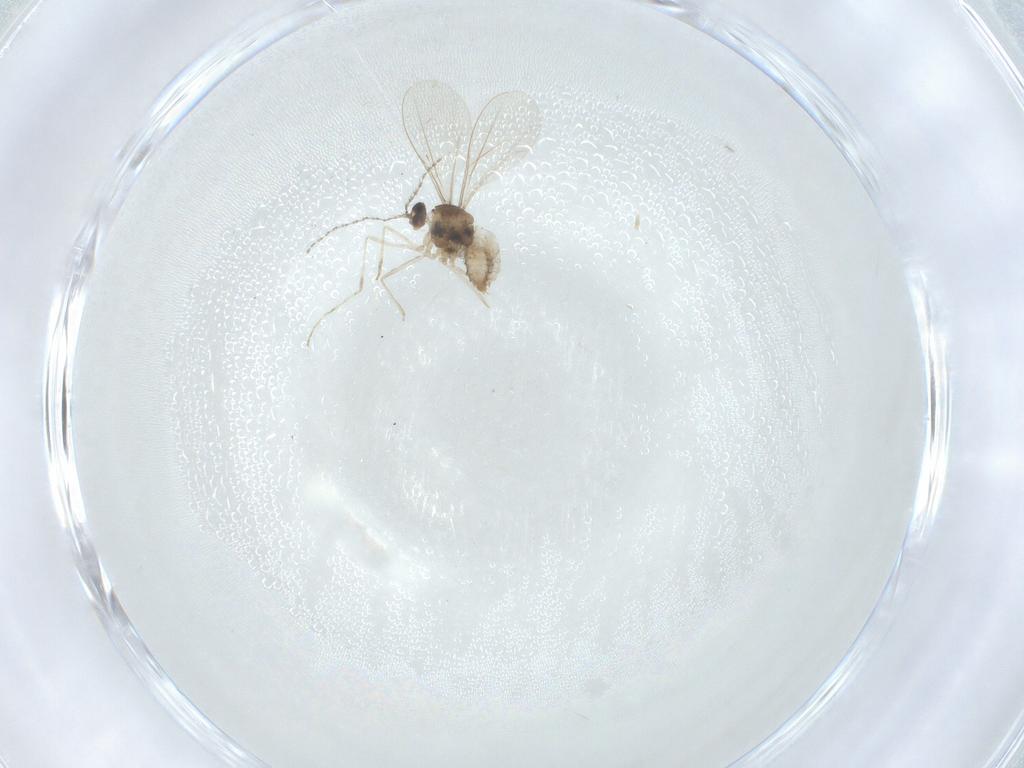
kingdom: Animalia
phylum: Arthropoda
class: Insecta
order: Diptera
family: Cecidomyiidae
